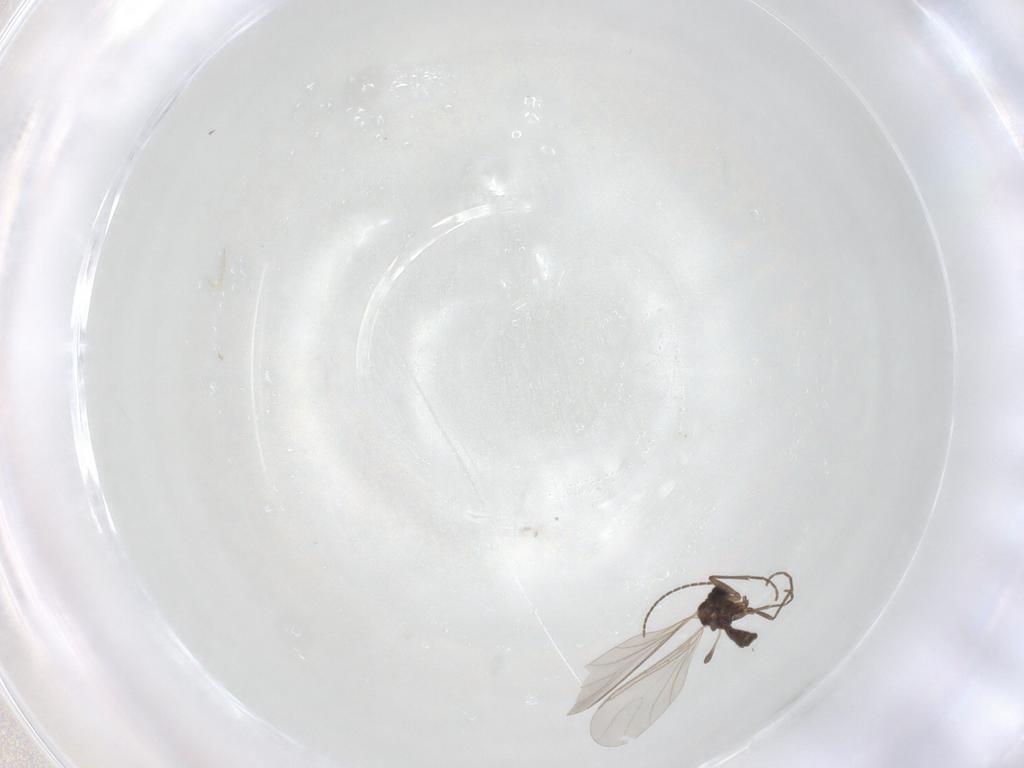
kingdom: Animalia
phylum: Arthropoda
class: Insecta
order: Diptera
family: Sciaridae
